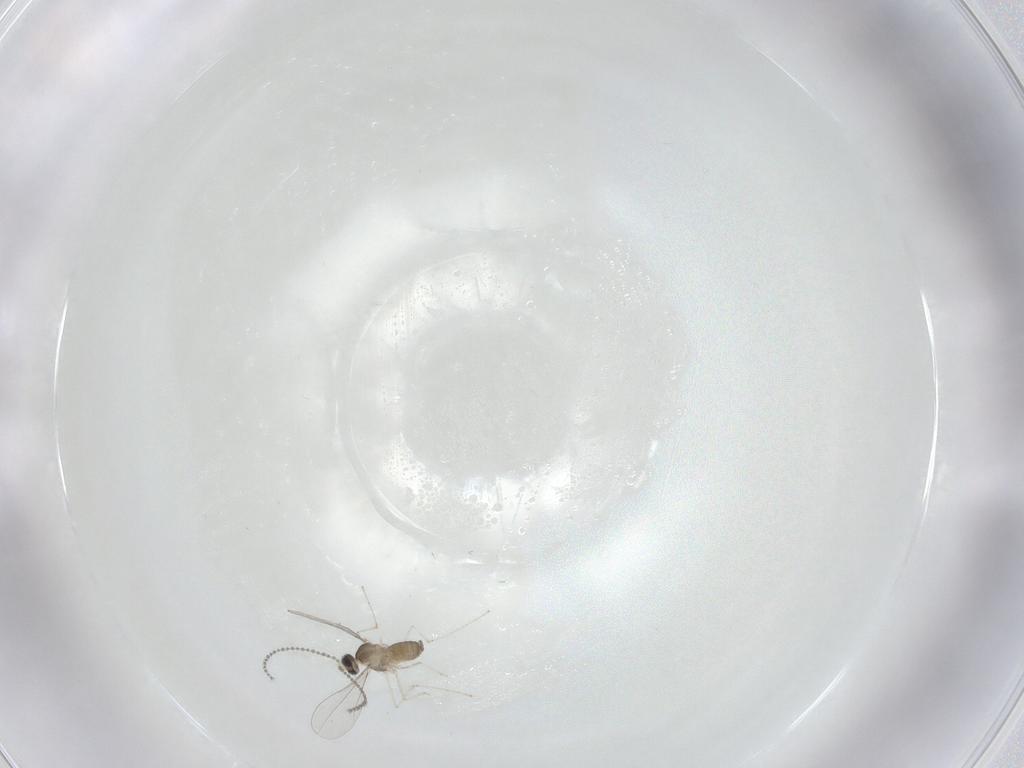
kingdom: Animalia
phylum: Arthropoda
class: Insecta
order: Diptera
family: Cecidomyiidae
